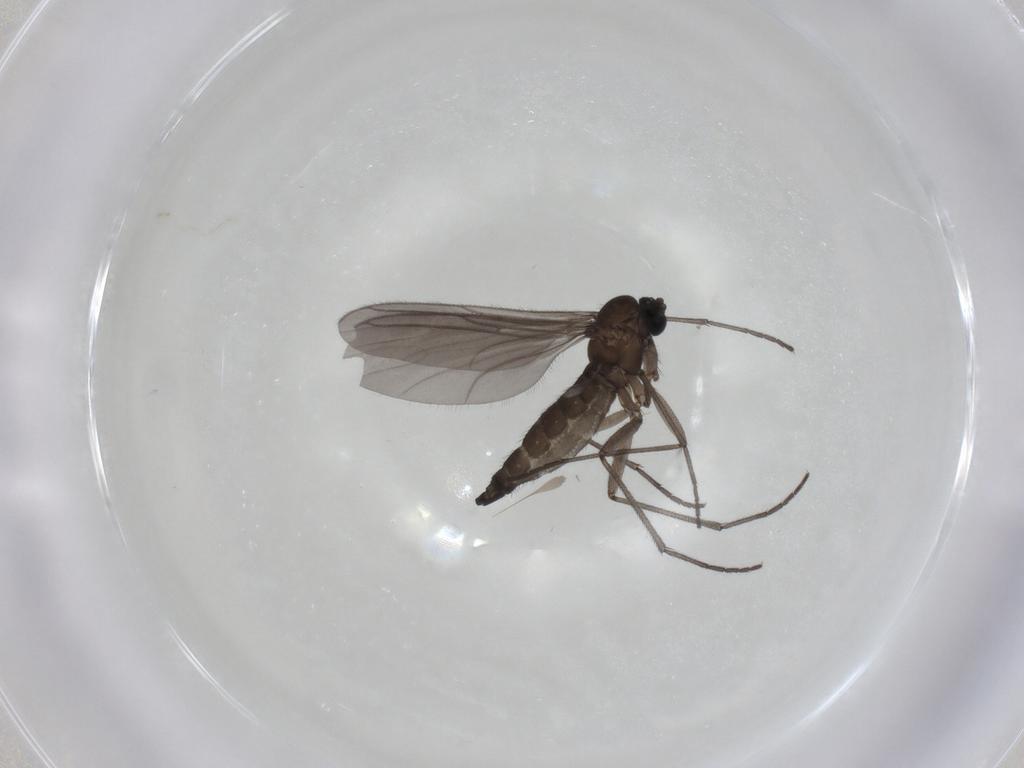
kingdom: Animalia
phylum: Arthropoda
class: Insecta
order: Diptera
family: Sciaridae
